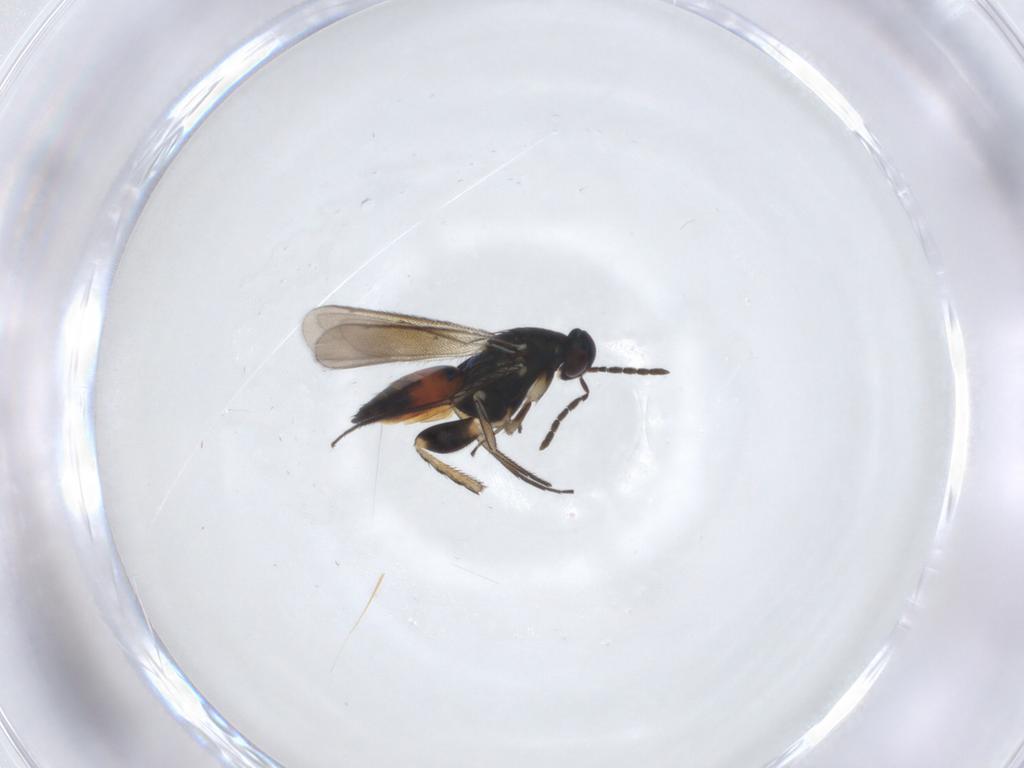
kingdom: Animalia
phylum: Arthropoda
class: Insecta
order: Hymenoptera
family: Eulophidae
